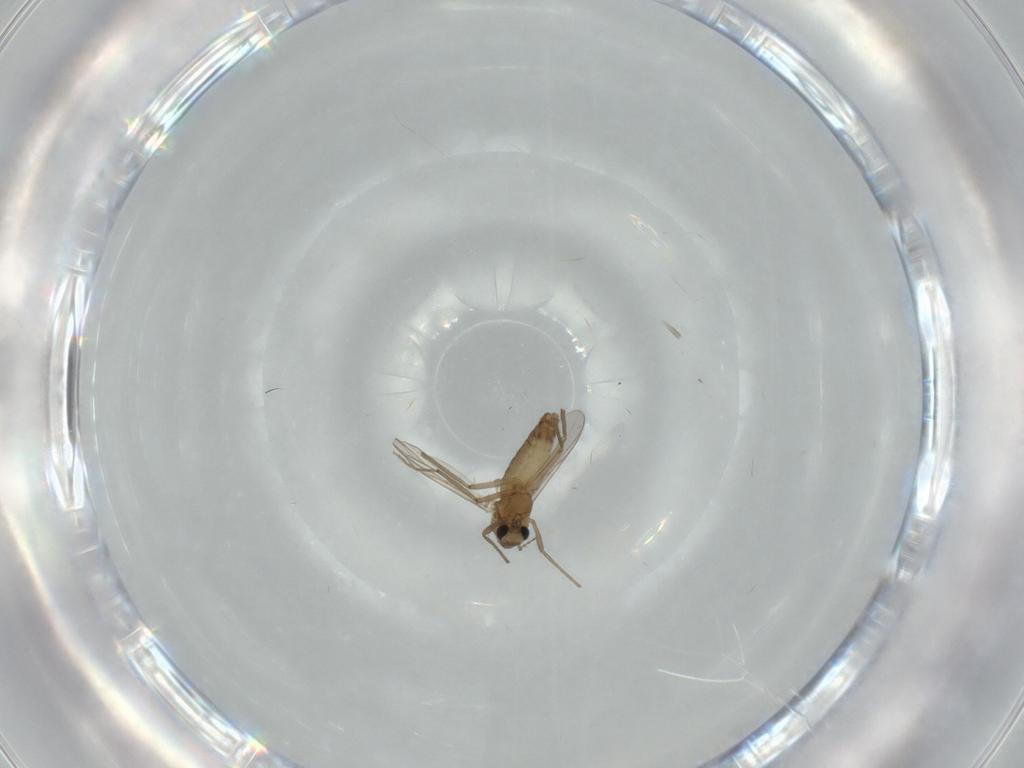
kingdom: Animalia
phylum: Arthropoda
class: Insecta
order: Diptera
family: Chironomidae
